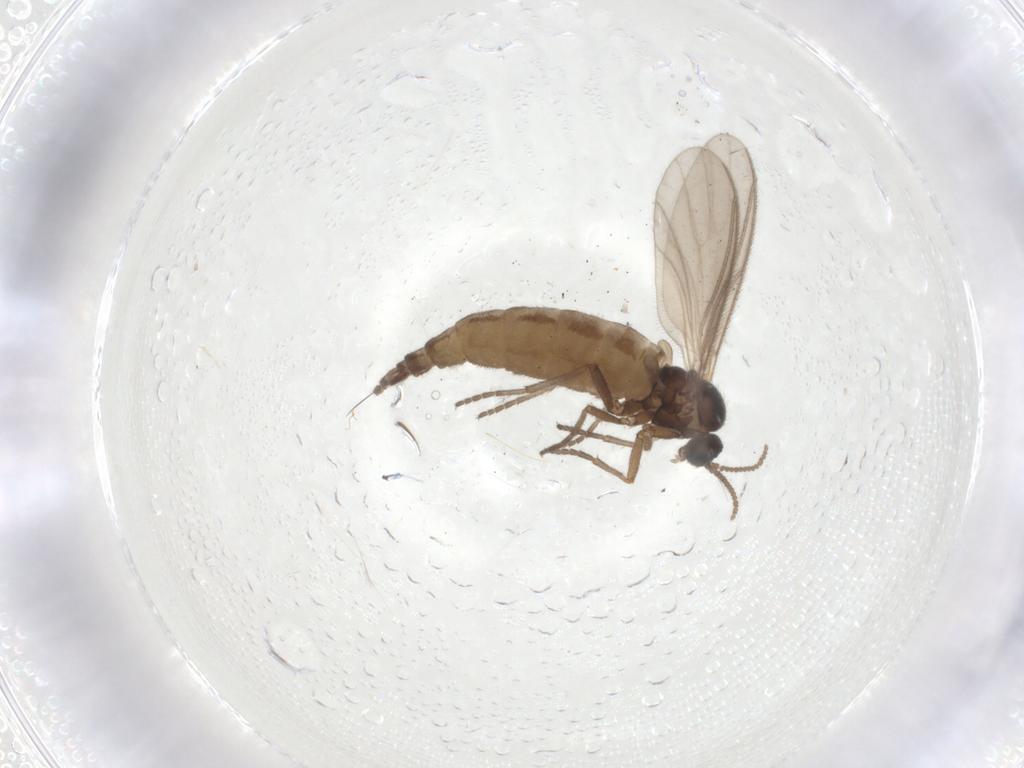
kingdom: Animalia
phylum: Arthropoda
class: Insecta
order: Diptera
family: Sciaridae
